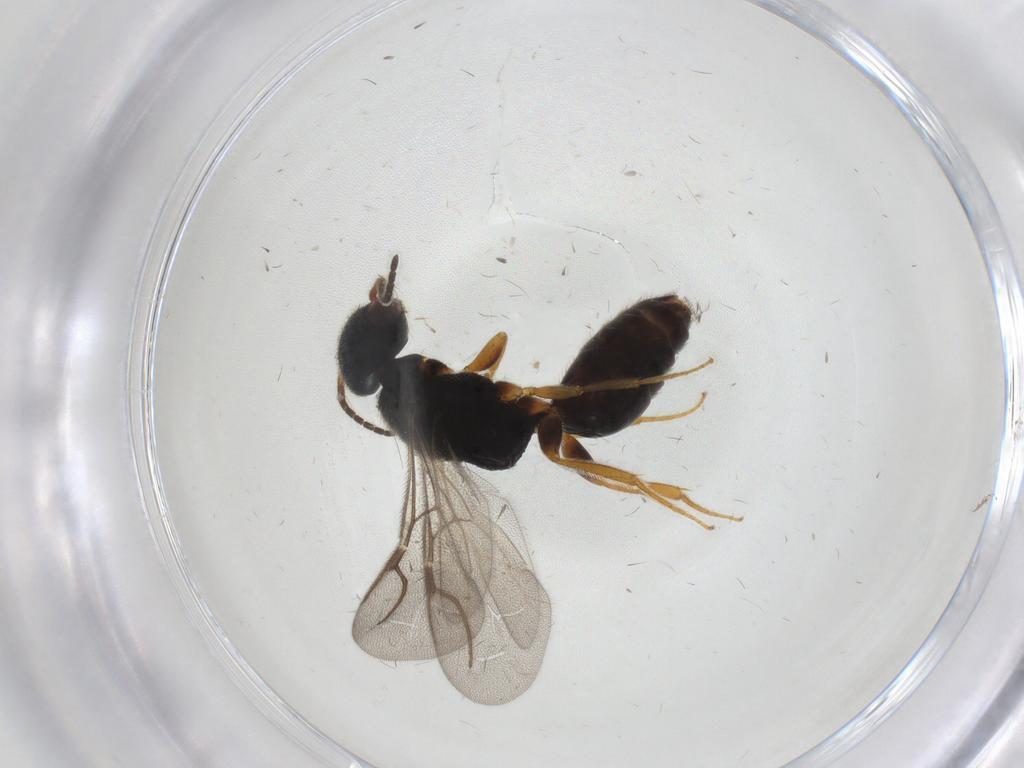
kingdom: Animalia
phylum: Arthropoda
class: Insecta
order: Hymenoptera
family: Bethylidae
